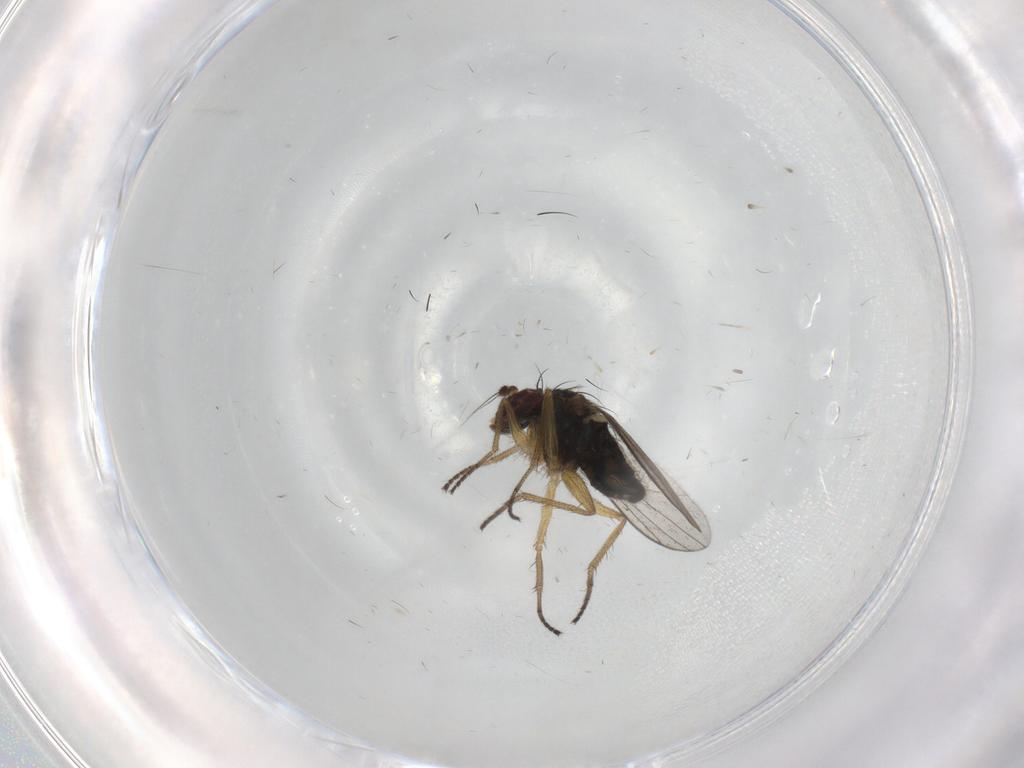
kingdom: Animalia
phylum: Arthropoda
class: Insecta
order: Diptera
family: Ceratopogonidae
